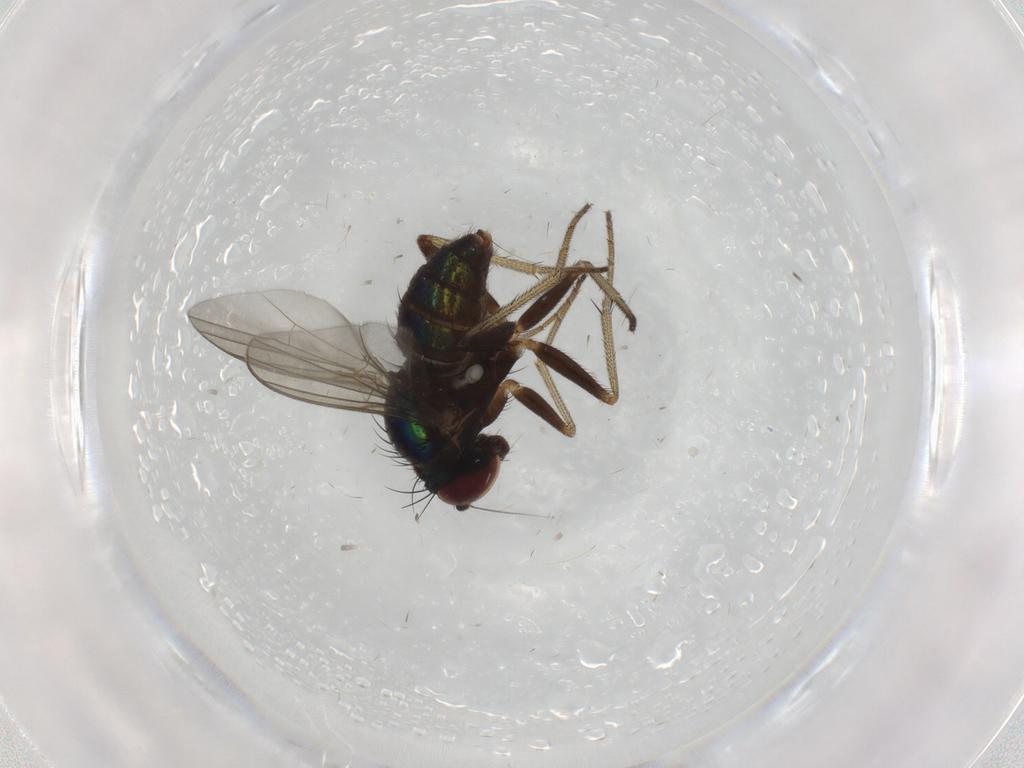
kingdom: Animalia
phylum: Arthropoda
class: Insecta
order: Diptera
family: Dolichopodidae
